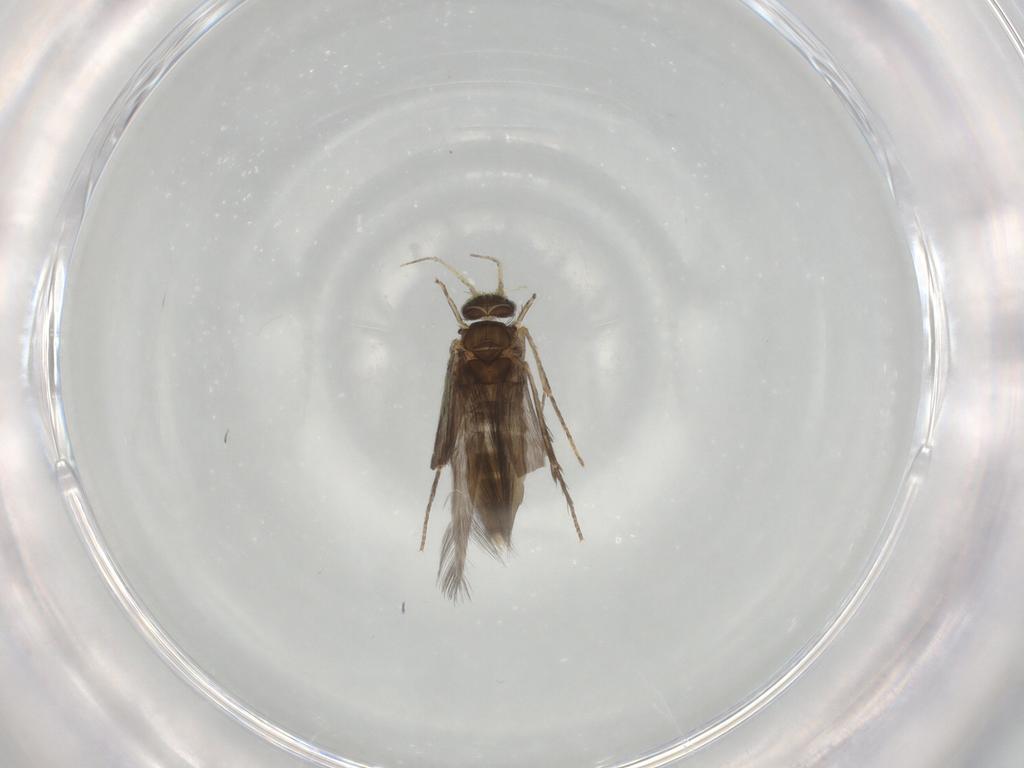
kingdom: Animalia
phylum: Arthropoda
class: Insecta
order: Trichoptera
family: Hydroptilidae
